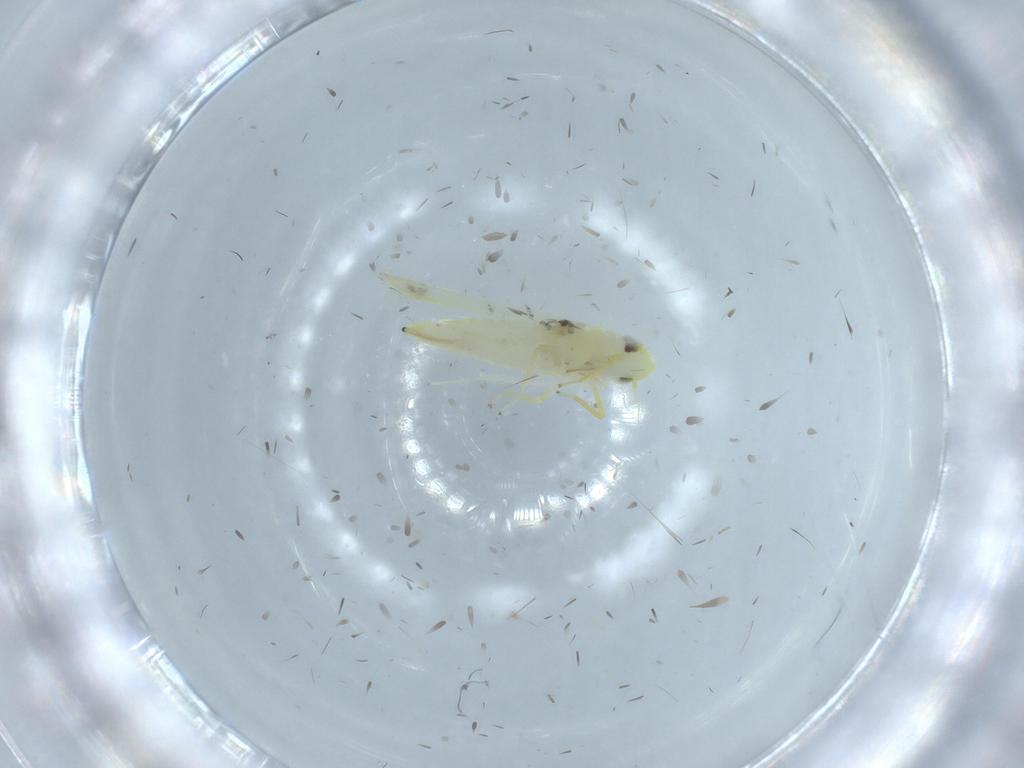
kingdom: Animalia
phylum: Arthropoda
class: Insecta
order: Hemiptera
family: Cicadellidae
